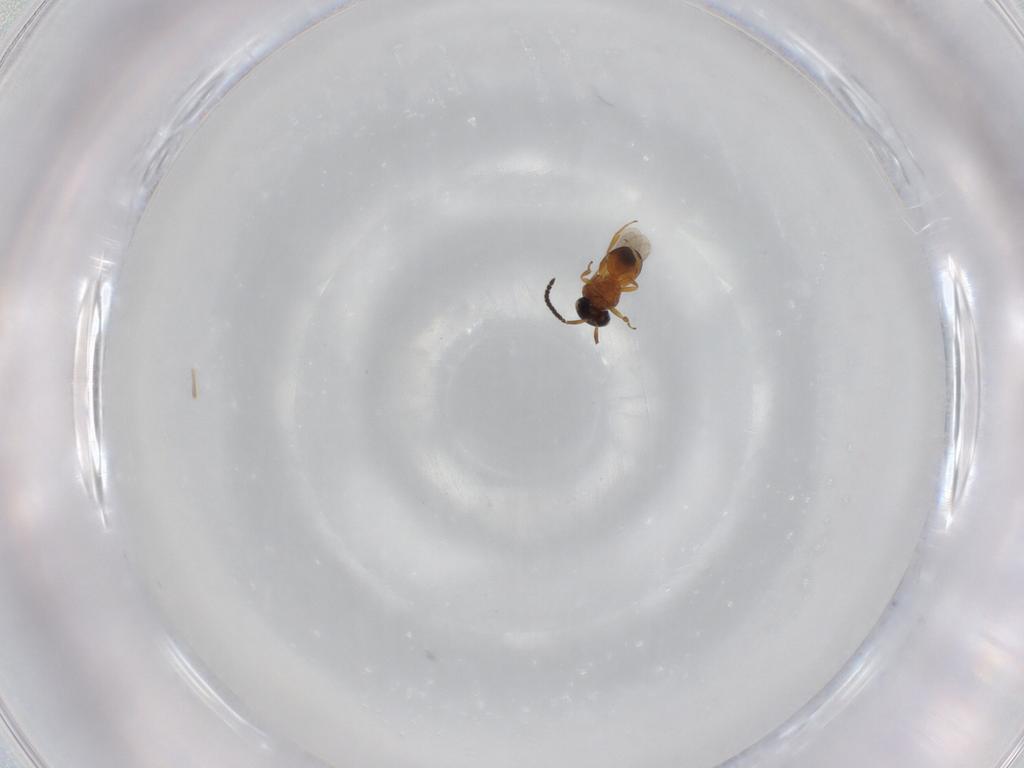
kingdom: Animalia
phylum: Arthropoda
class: Insecta
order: Hymenoptera
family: Scelionidae
